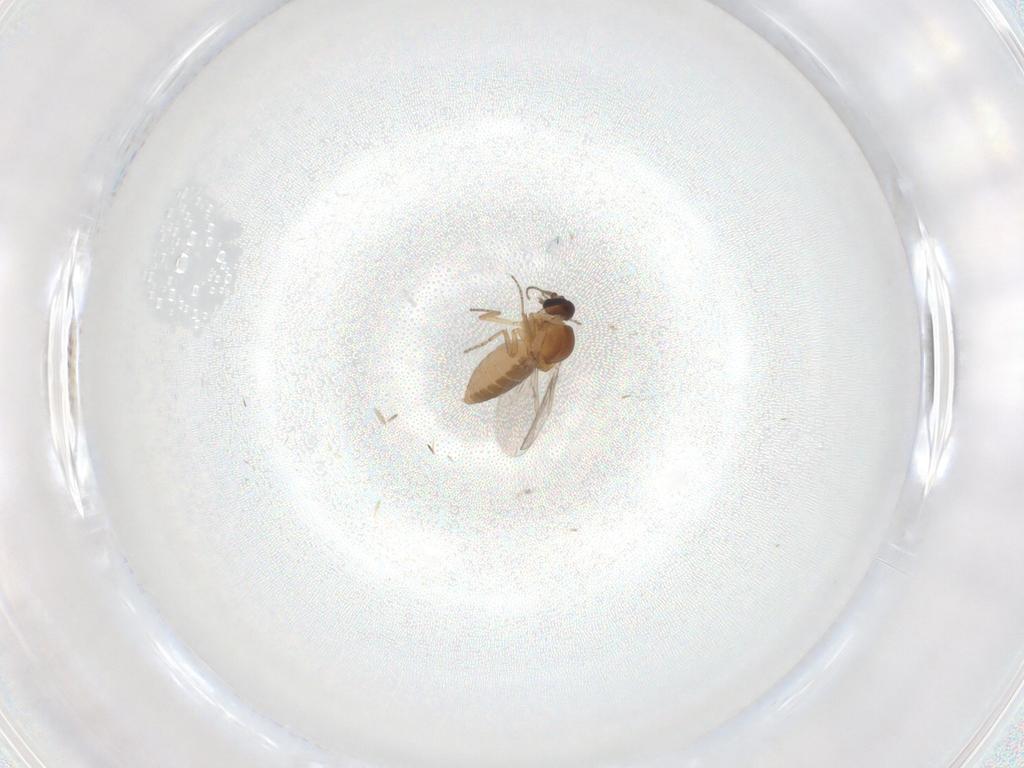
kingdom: Animalia
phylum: Arthropoda
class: Insecta
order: Diptera
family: Ceratopogonidae
